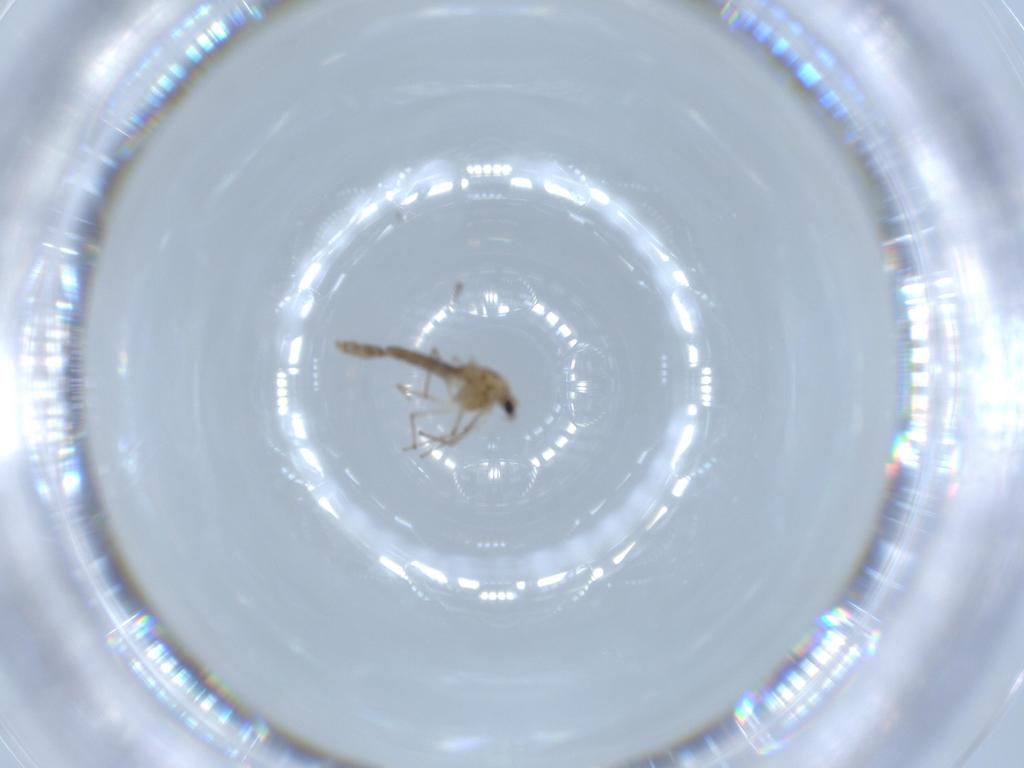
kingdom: Animalia
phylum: Arthropoda
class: Insecta
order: Diptera
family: Chironomidae
